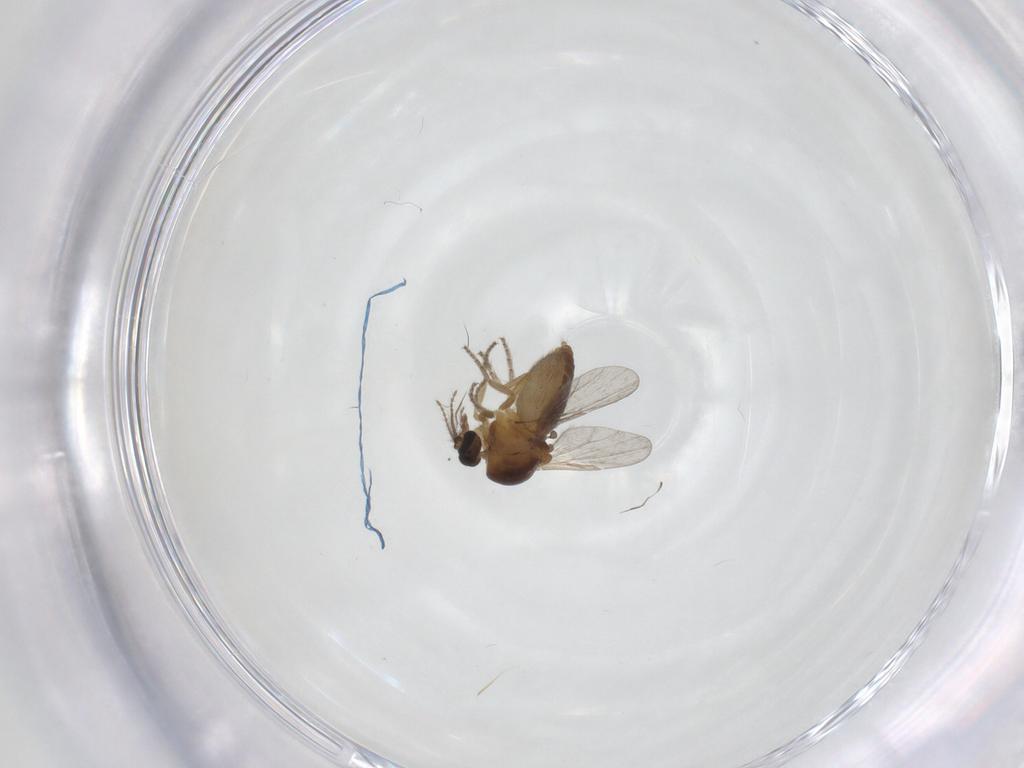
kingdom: Animalia
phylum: Arthropoda
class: Insecta
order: Diptera
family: Ceratopogonidae
